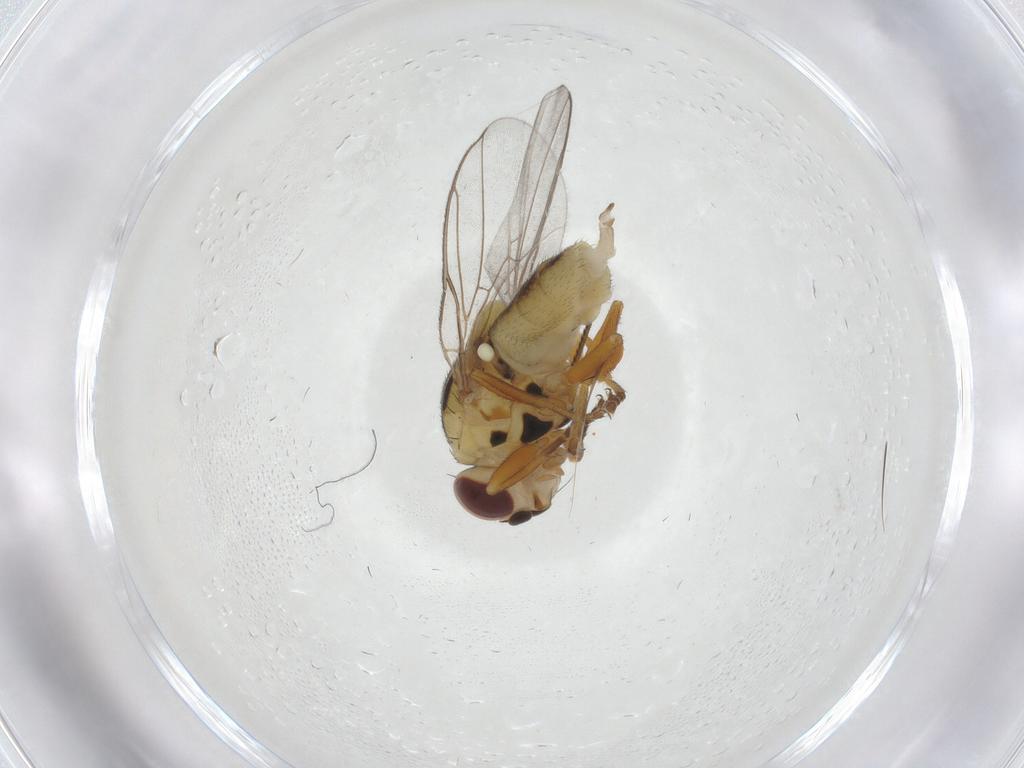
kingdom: Animalia
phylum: Arthropoda
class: Insecta
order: Diptera
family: Chloropidae
